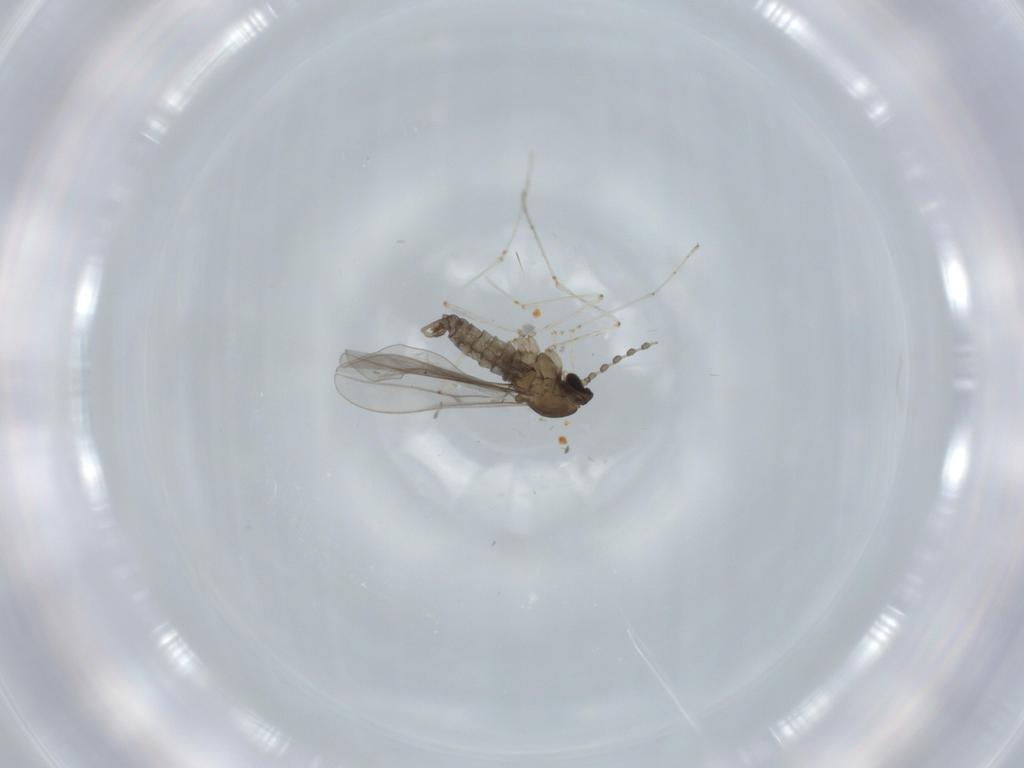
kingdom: Animalia
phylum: Arthropoda
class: Insecta
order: Diptera
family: Cecidomyiidae
